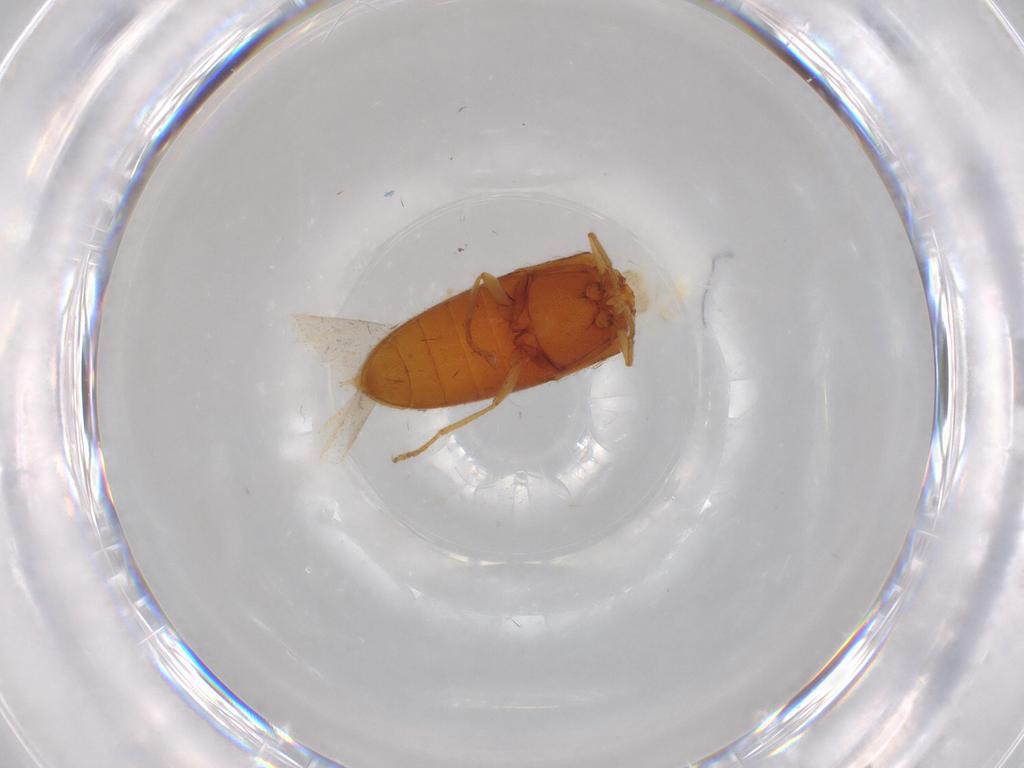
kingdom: Animalia
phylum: Arthropoda
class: Insecta
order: Coleoptera
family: Elateridae
